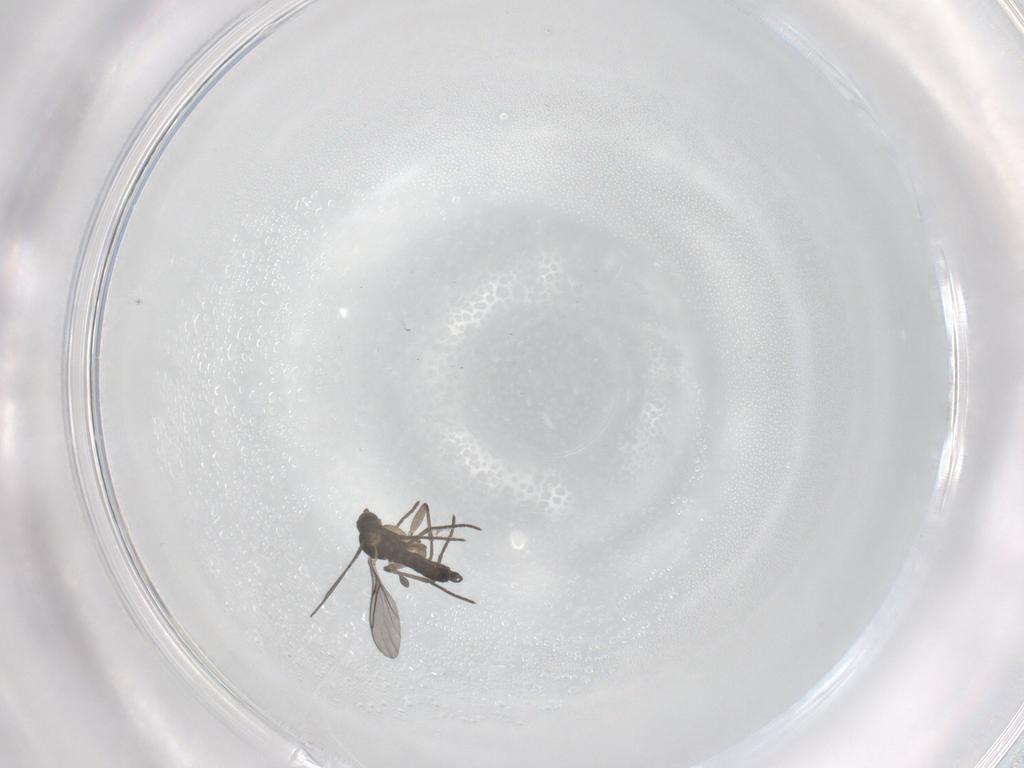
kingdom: Animalia
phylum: Arthropoda
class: Insecta
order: Diptera
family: Sciaridae
